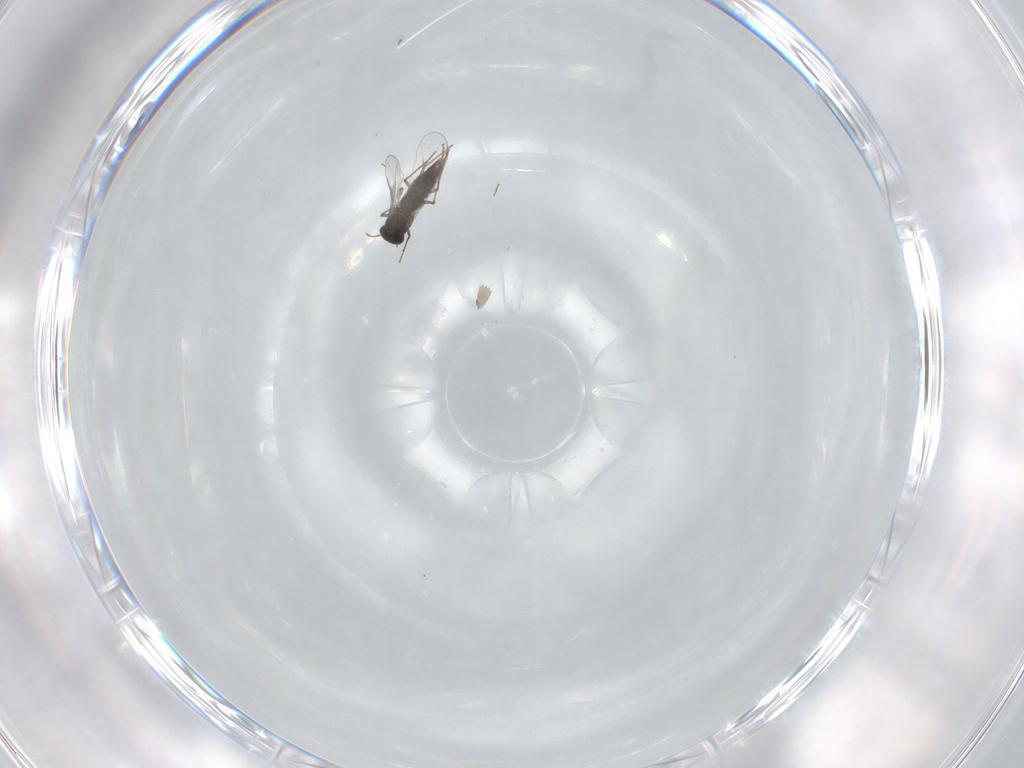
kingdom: Animalia
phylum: Arthropoda
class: Insecta
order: Diptera
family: Chironomidae
